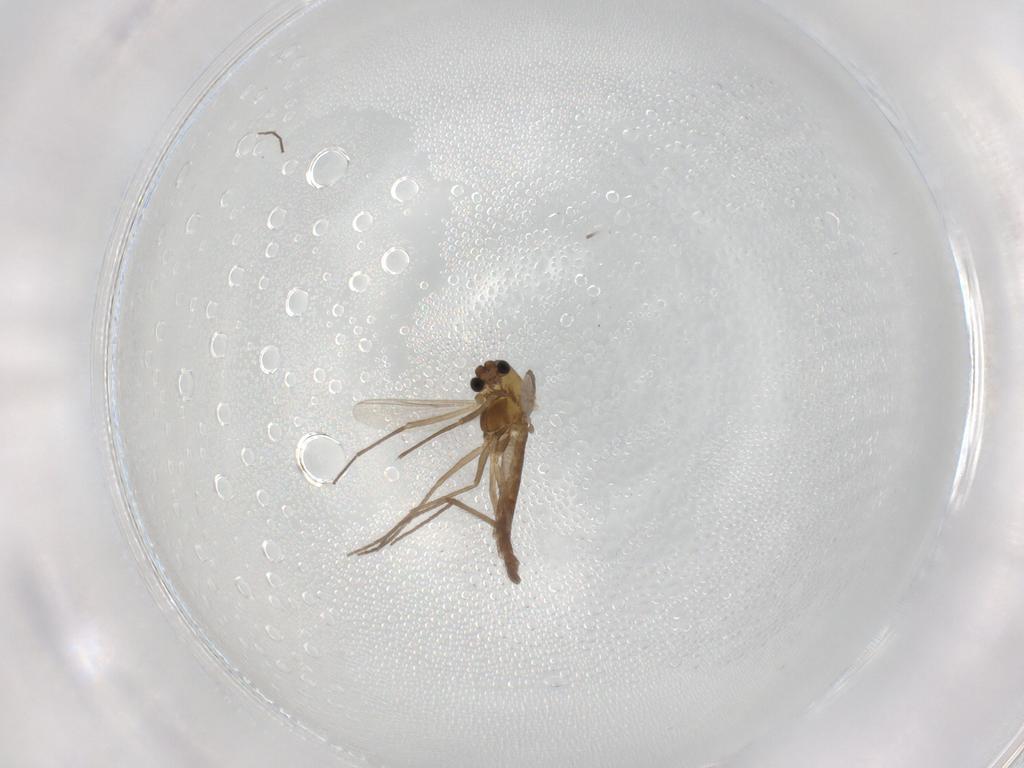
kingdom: Animalia
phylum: Arthropoda
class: Insecta
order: Diptera
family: Chironomidae
